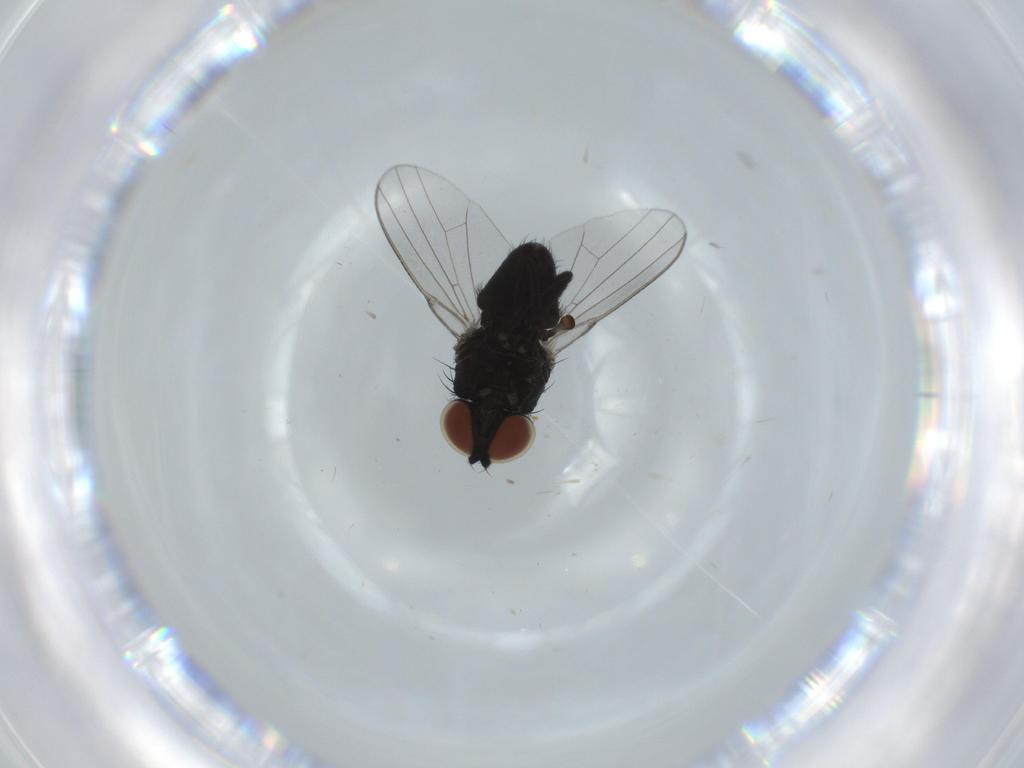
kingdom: Animalia
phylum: Arthropoda
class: Insecta
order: Diptera
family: Milichiidae
